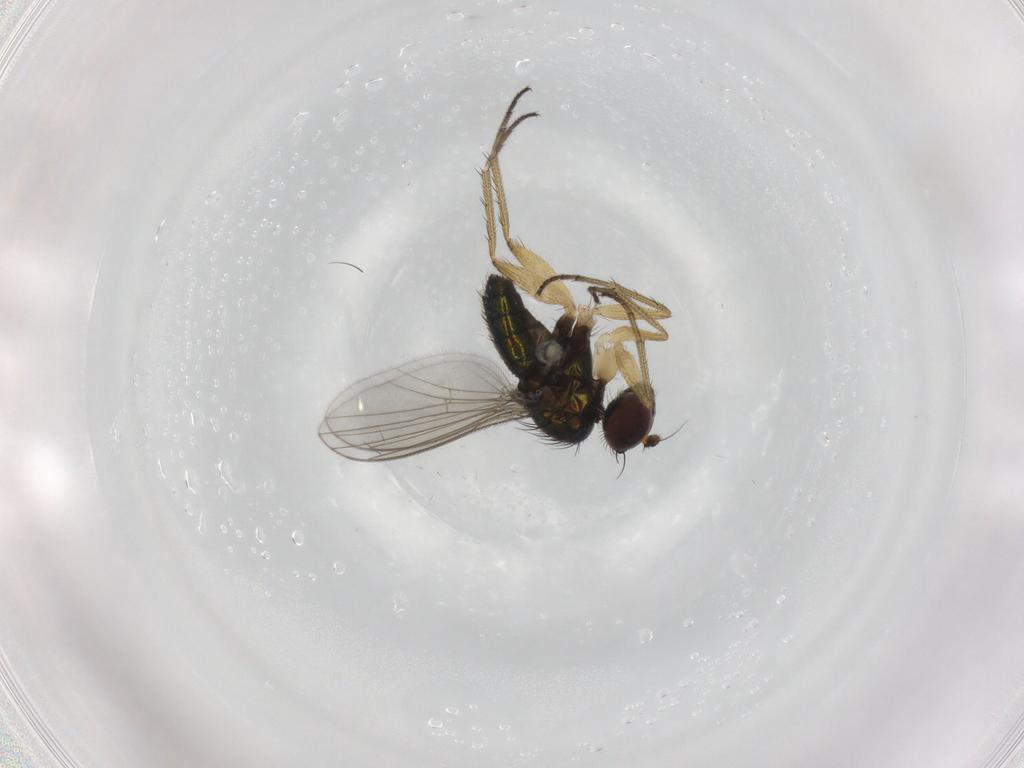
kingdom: Animalia
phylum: Arthropoda
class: Insecta
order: Diptera
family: Dolichopodidae
